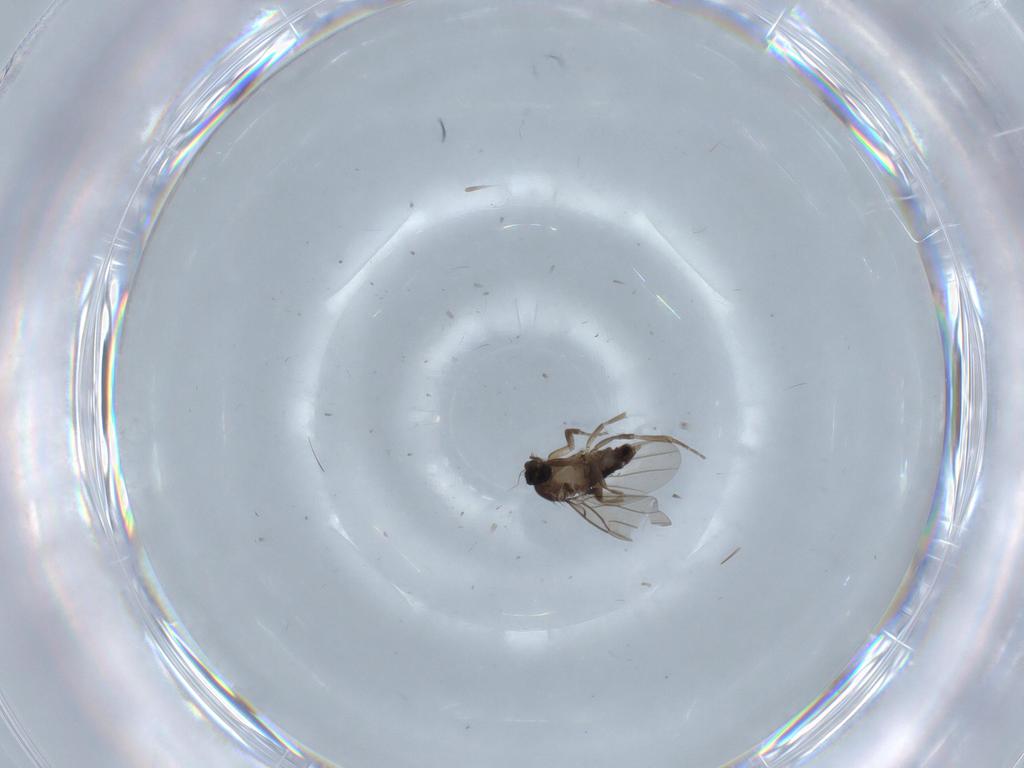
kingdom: Animalia
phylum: Arthropoda
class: Insecta
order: Diptera
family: Phoridae
